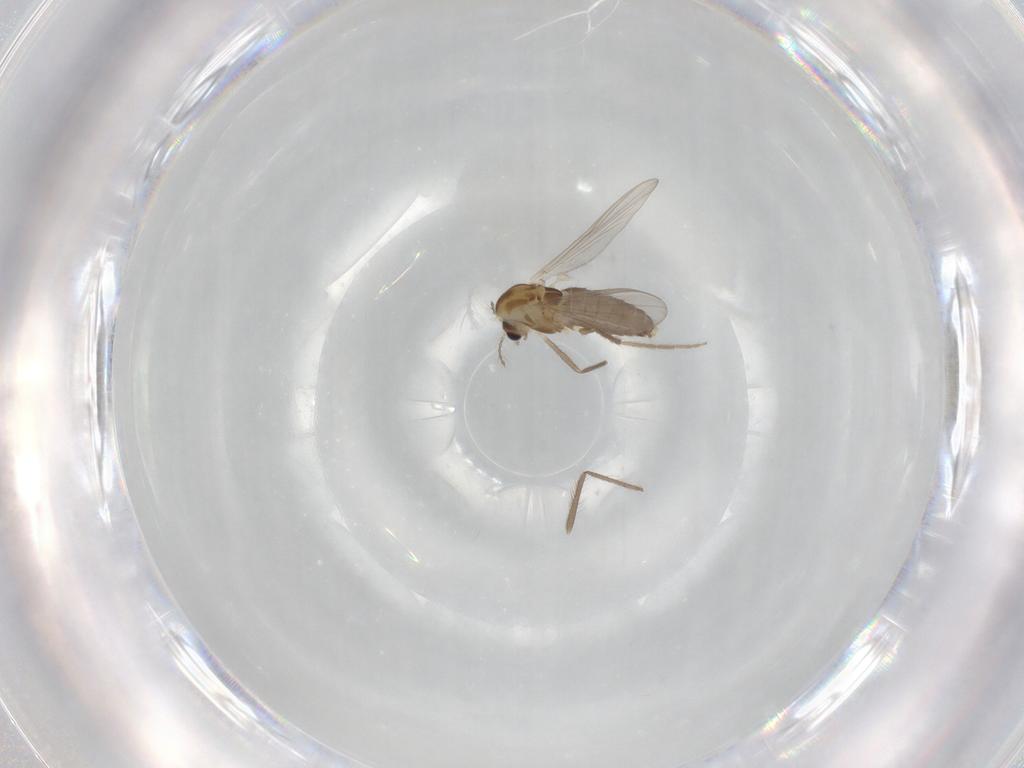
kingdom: Animalia
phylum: Arthropoda
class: Insecta
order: Diptera
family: Chironomidae
